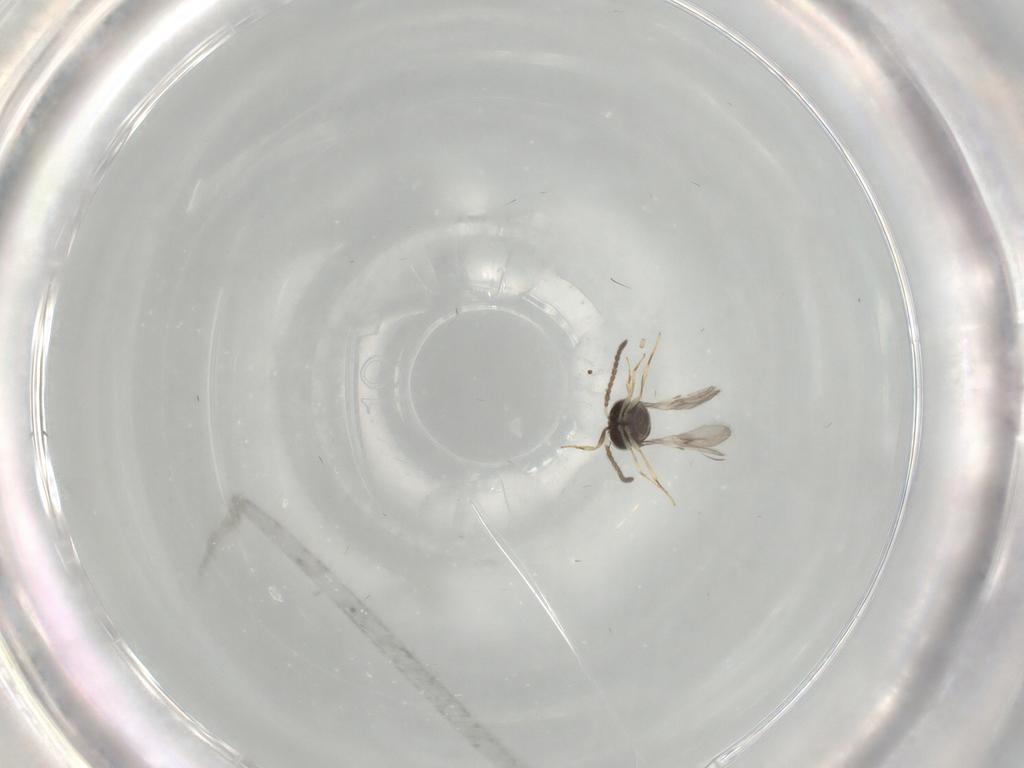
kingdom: Animalia
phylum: Arthropoda
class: Insecta
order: Hymenoptera
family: Scelionidae
